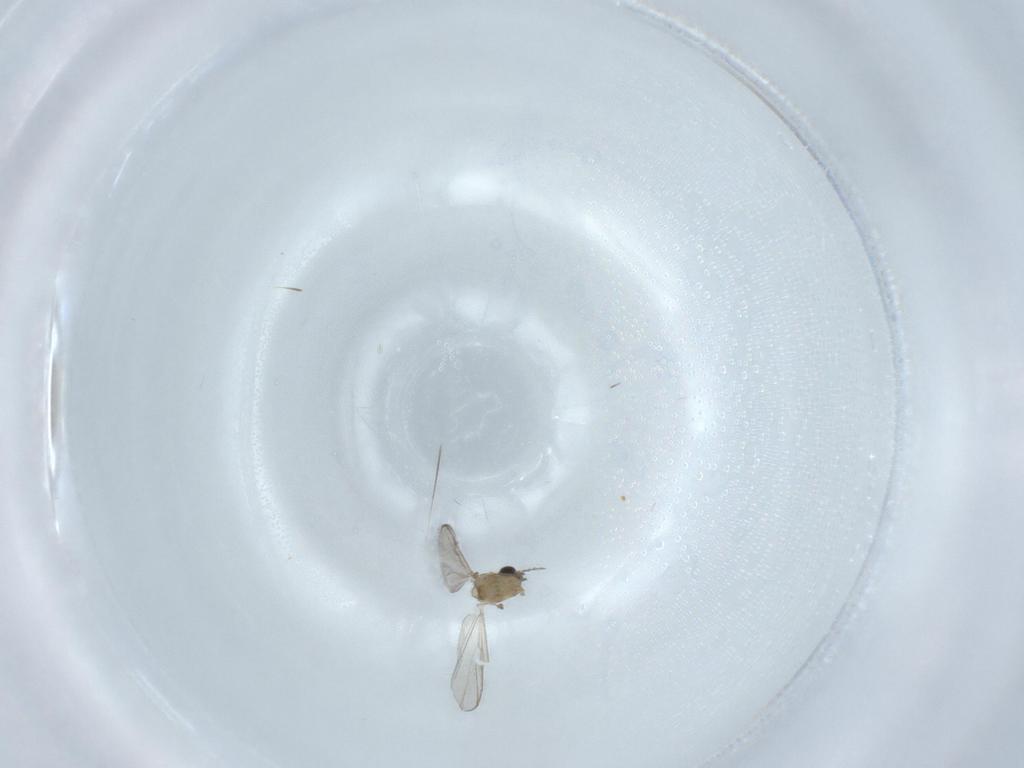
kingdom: Animalia
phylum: Arthropoda
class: Insecta
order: Diptera
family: Chironomidae
